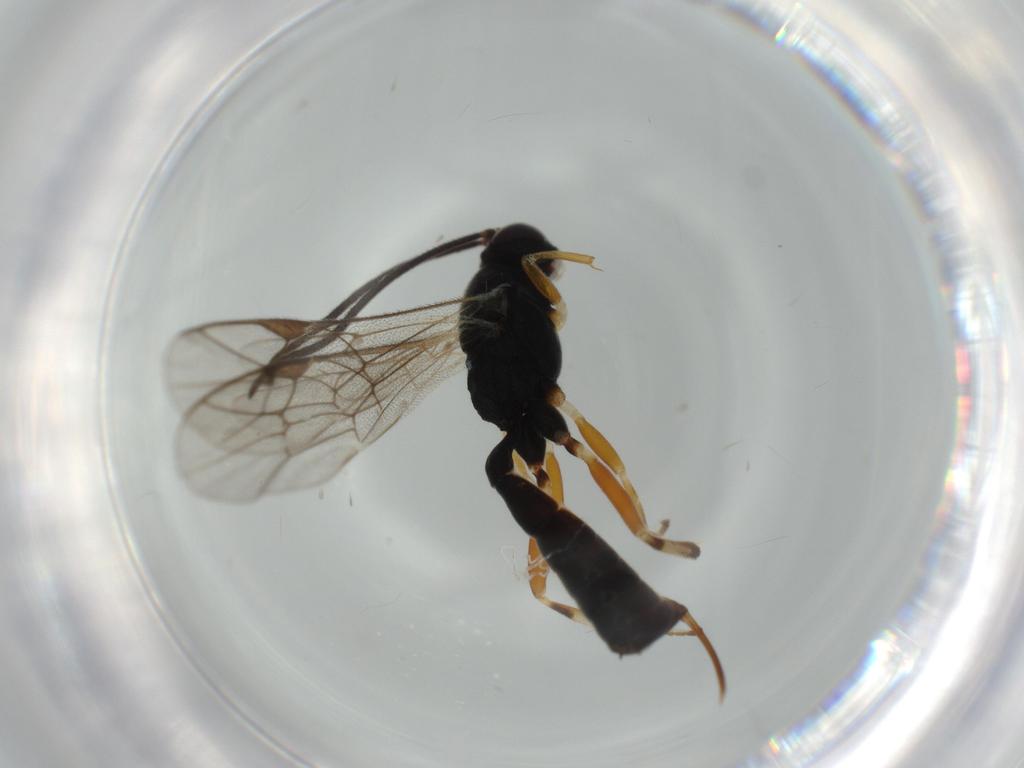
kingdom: Animalia
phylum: Arthropoda
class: Insecta
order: Hymenoptera
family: Ichneumonidae
